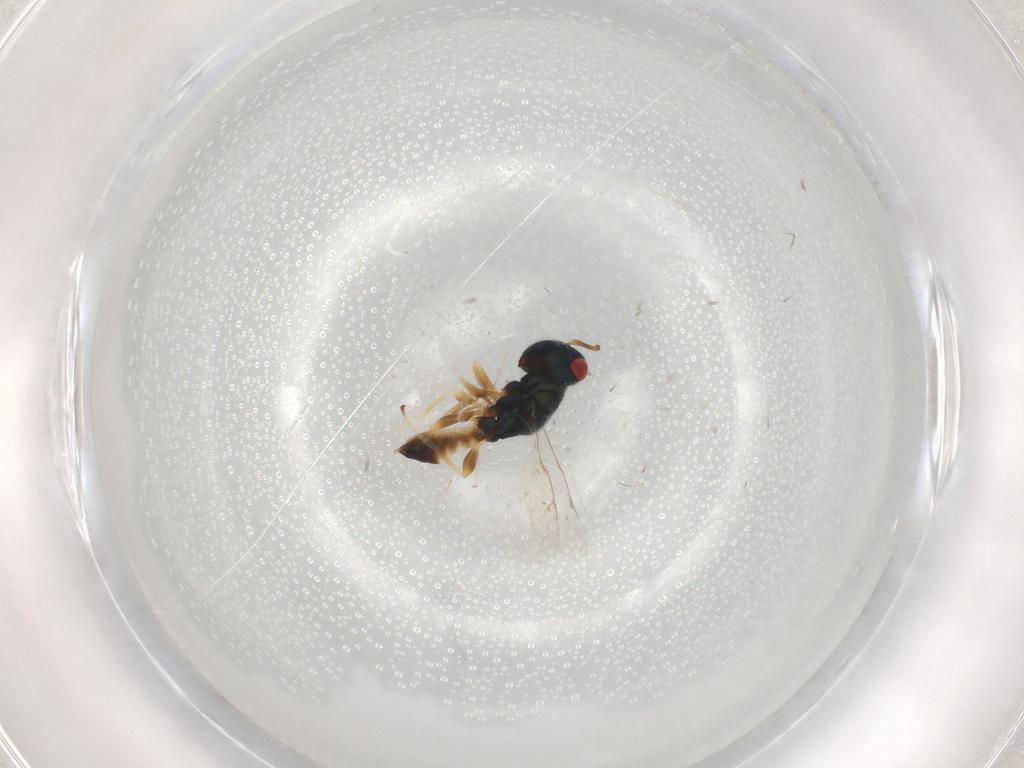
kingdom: Animalia
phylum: Arthropoda
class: Insecta
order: Hymenoptera
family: Pteromalidae
